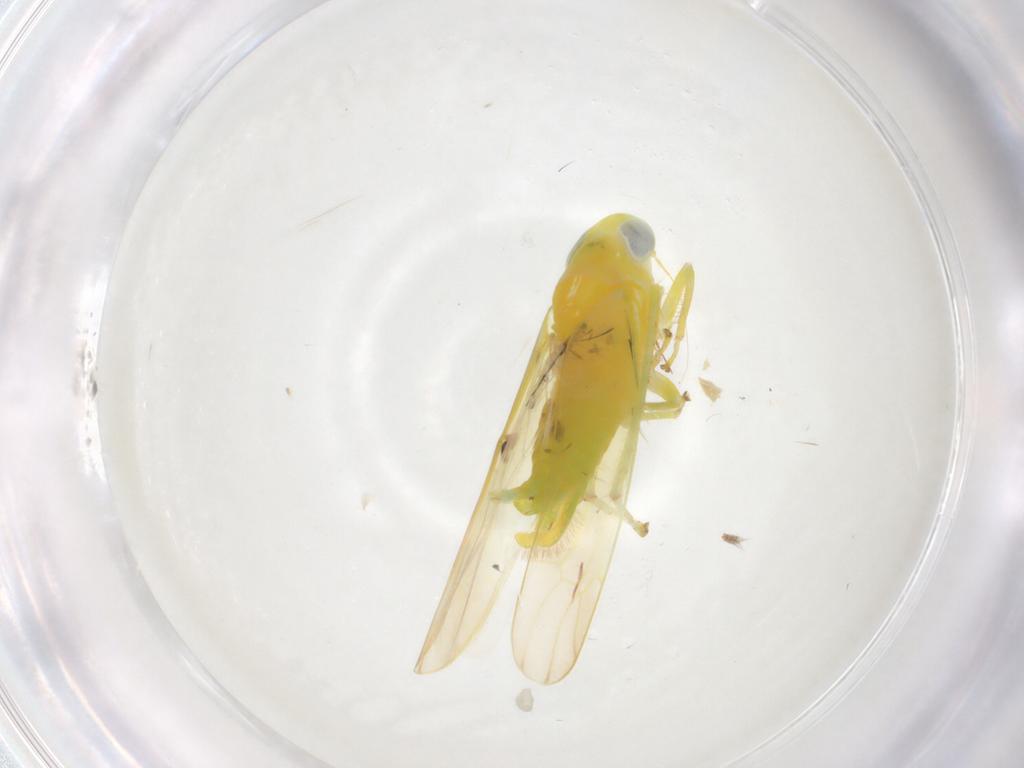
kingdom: Animalia
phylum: Arthropoda
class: Insecta
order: Hemiptera
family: Cicadellidae
